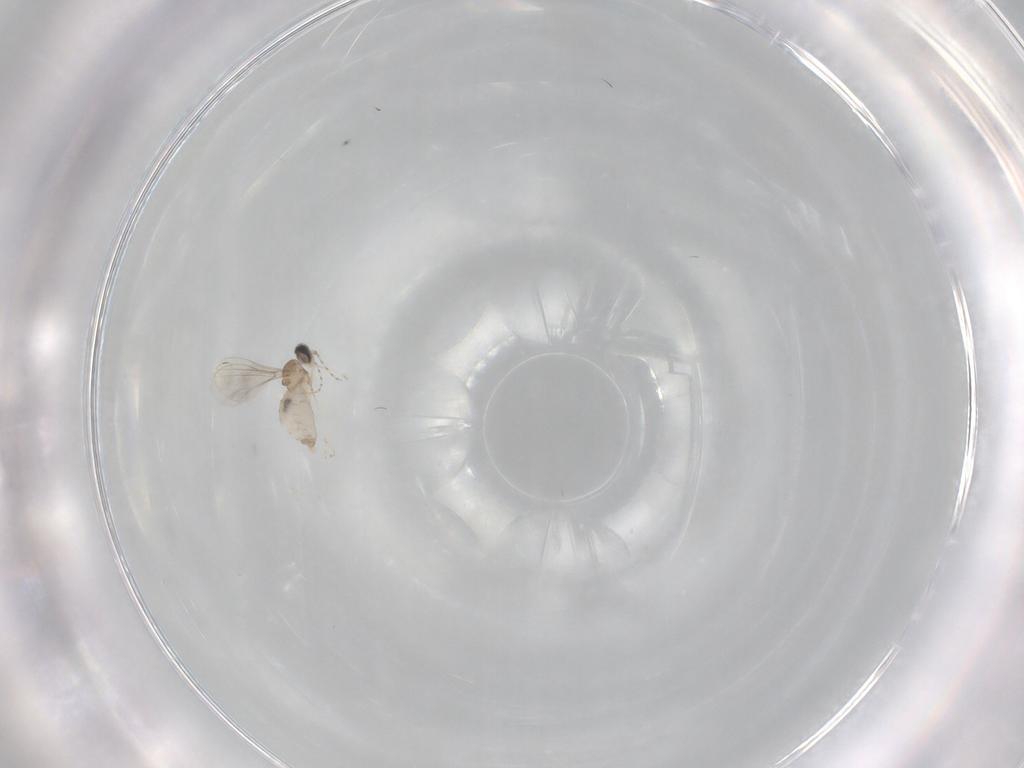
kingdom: Animalia
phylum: Arthropoda
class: Insecta
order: Diptera
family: Cecidomyiidae
